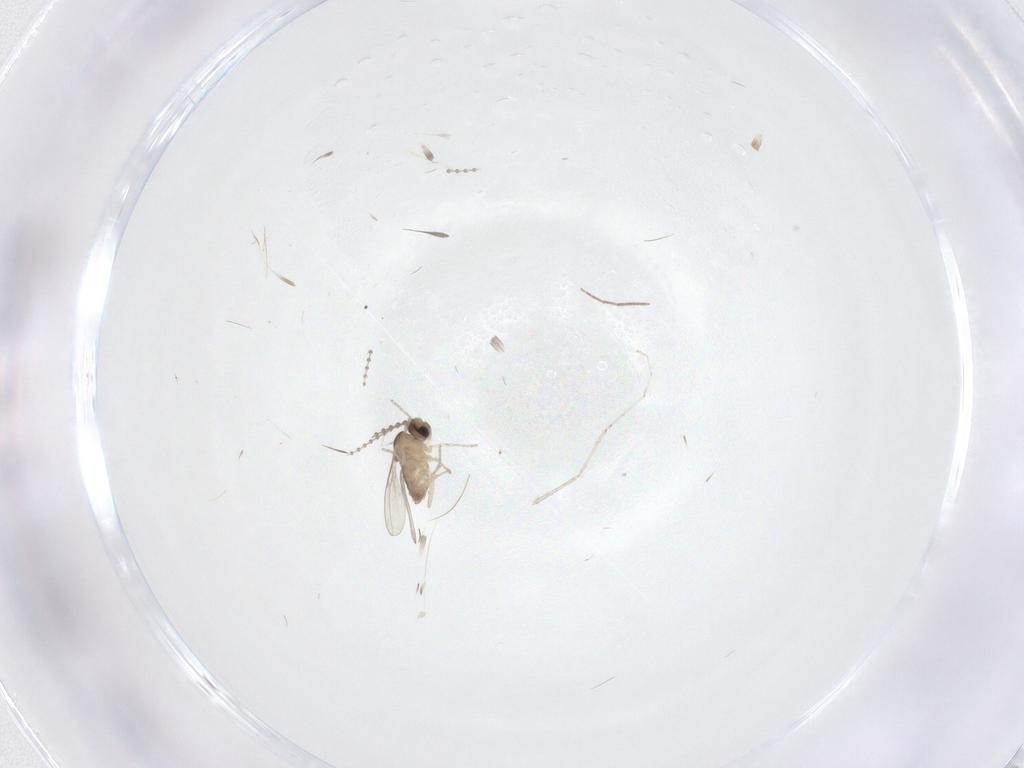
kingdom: Animalia
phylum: Arthropoda
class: Insecta
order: Diptera
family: Cecidomyiidae
